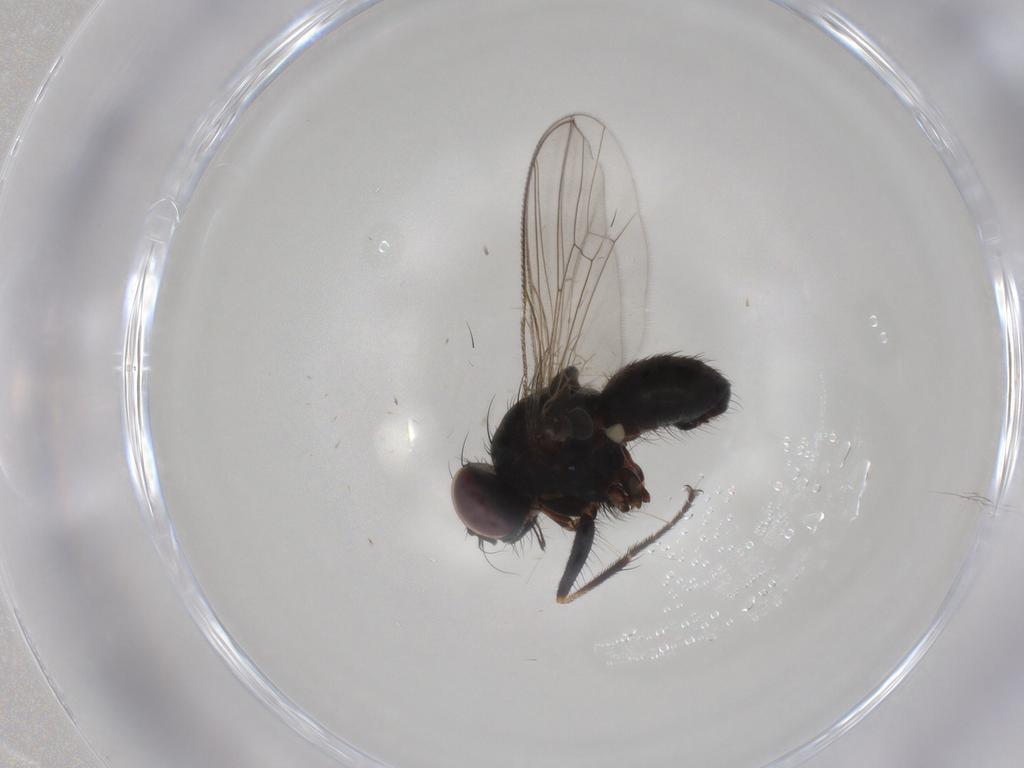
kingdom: Animalia
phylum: Arthropoda
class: Insecta
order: Diptera
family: Muscidae
